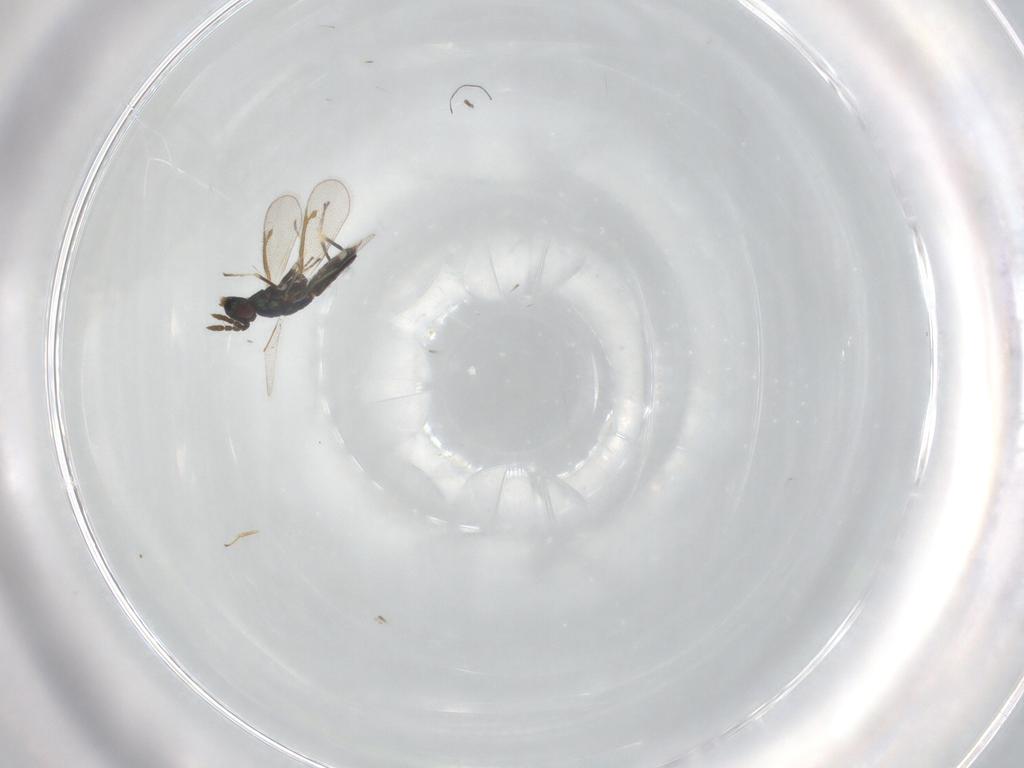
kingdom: Animalia
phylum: Arthropoda
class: Insecta
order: Hymenoptera
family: Eulophidae
